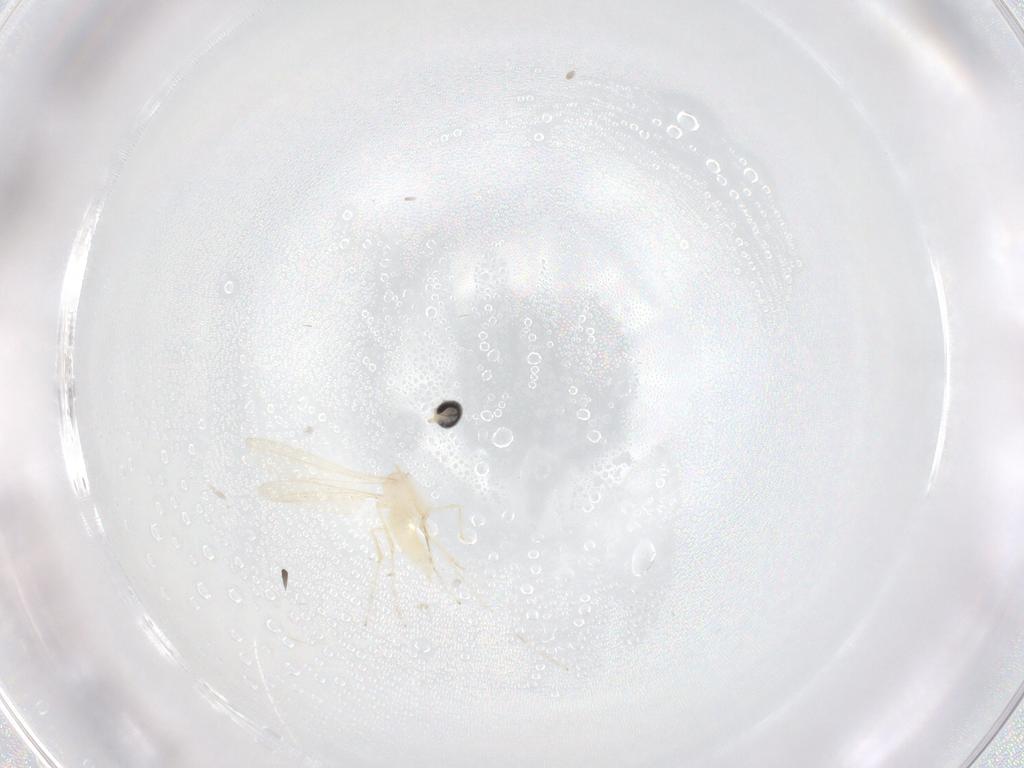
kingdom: Animalia
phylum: Arthropoda
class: Insecta
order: Diptera
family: Cecidomyiidae
